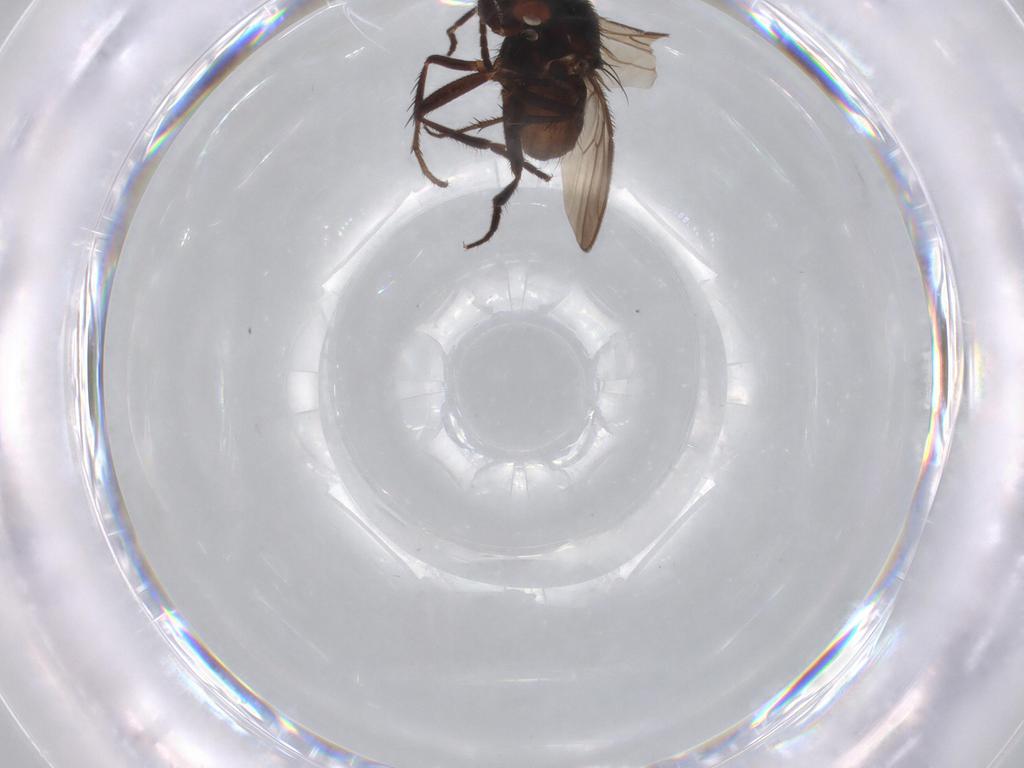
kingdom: Animalia
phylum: Arthropoda
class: Insecta
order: Diptera
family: Sphaeroceridae
